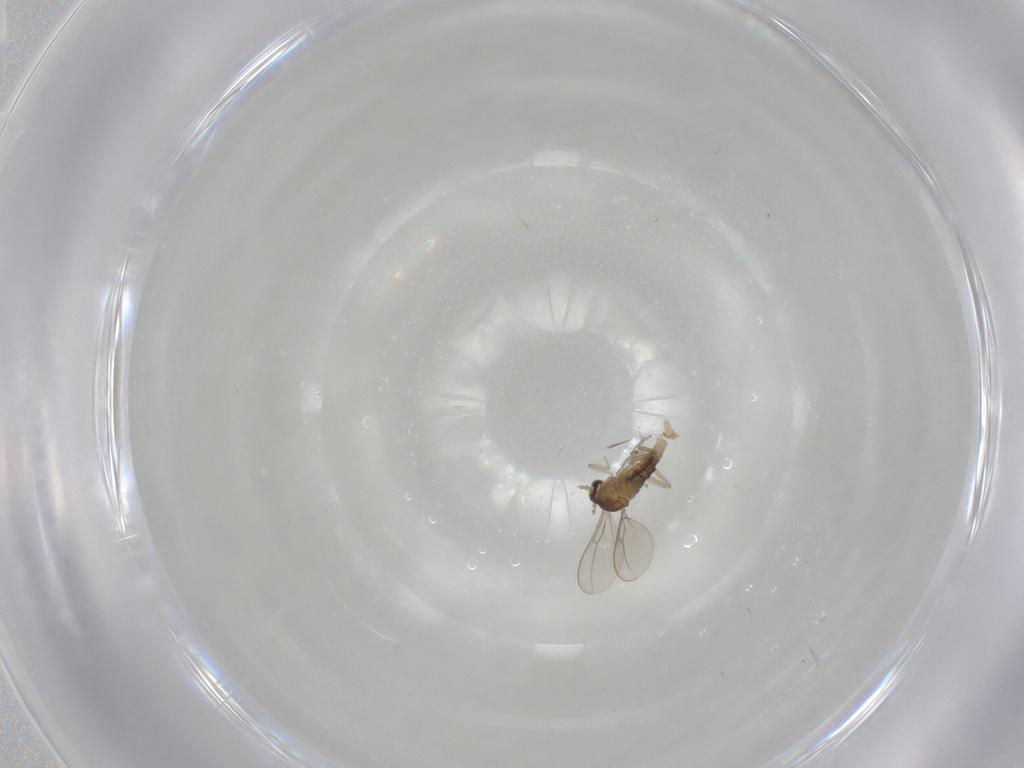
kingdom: Animalia
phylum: Arthropoda
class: Insecta
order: Diptera
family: Cecidomyiidae
